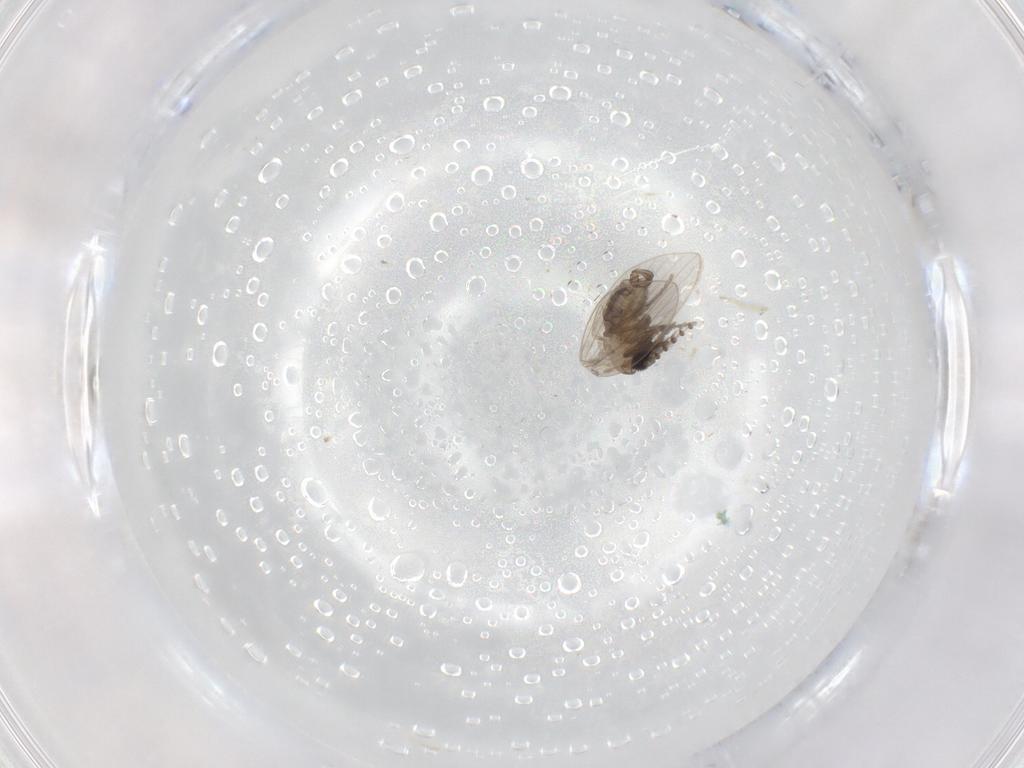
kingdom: Animalia
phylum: Arthropoda
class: Insecta
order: Diptera
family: Psychodidae
